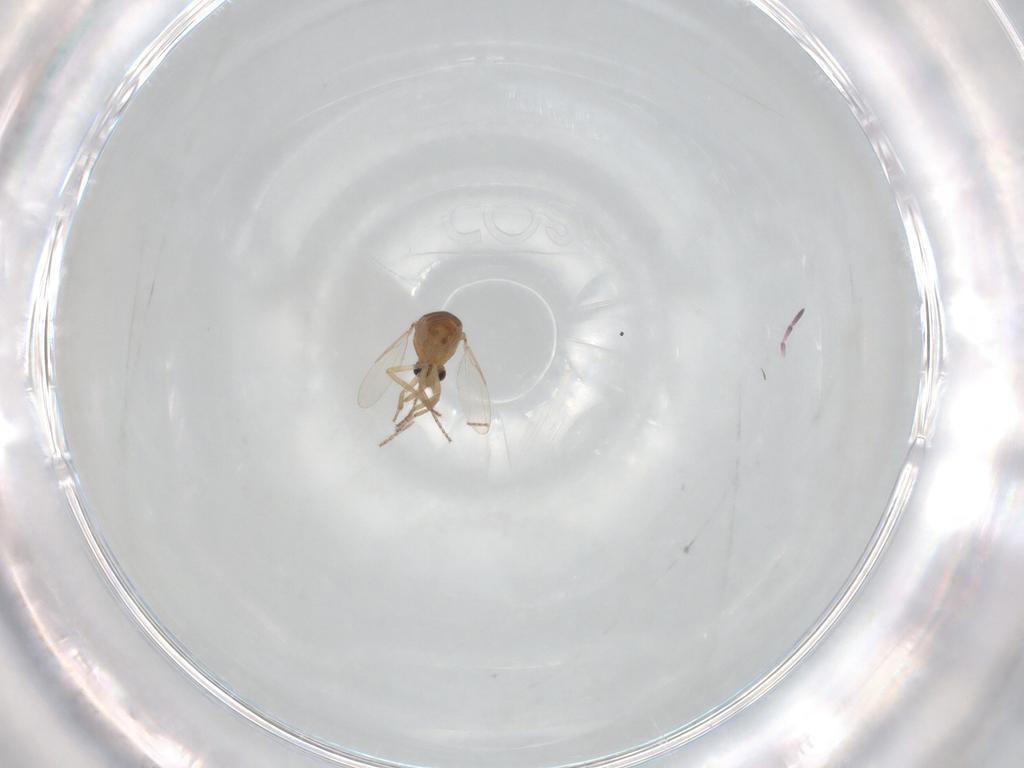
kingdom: Animalia
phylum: Arthropoda
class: Insecta
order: Diptera
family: Ceratopogonidae
